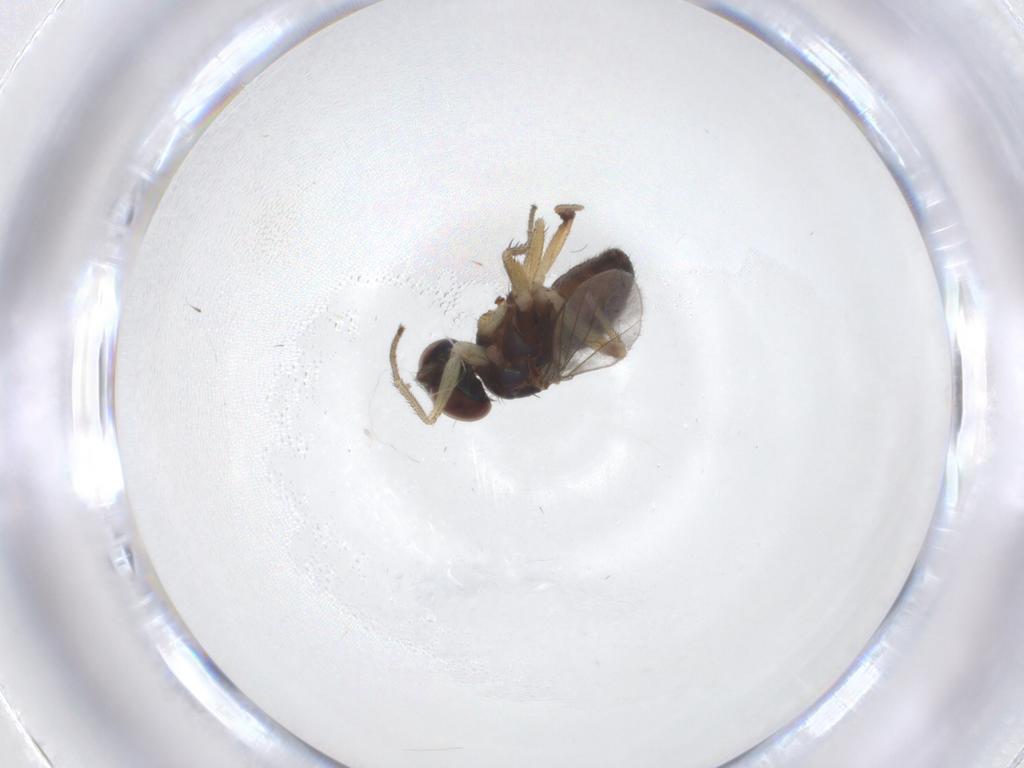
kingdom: Animalia
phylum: Arthropoda
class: Insecta
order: Diptera
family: Dolichopodidae
